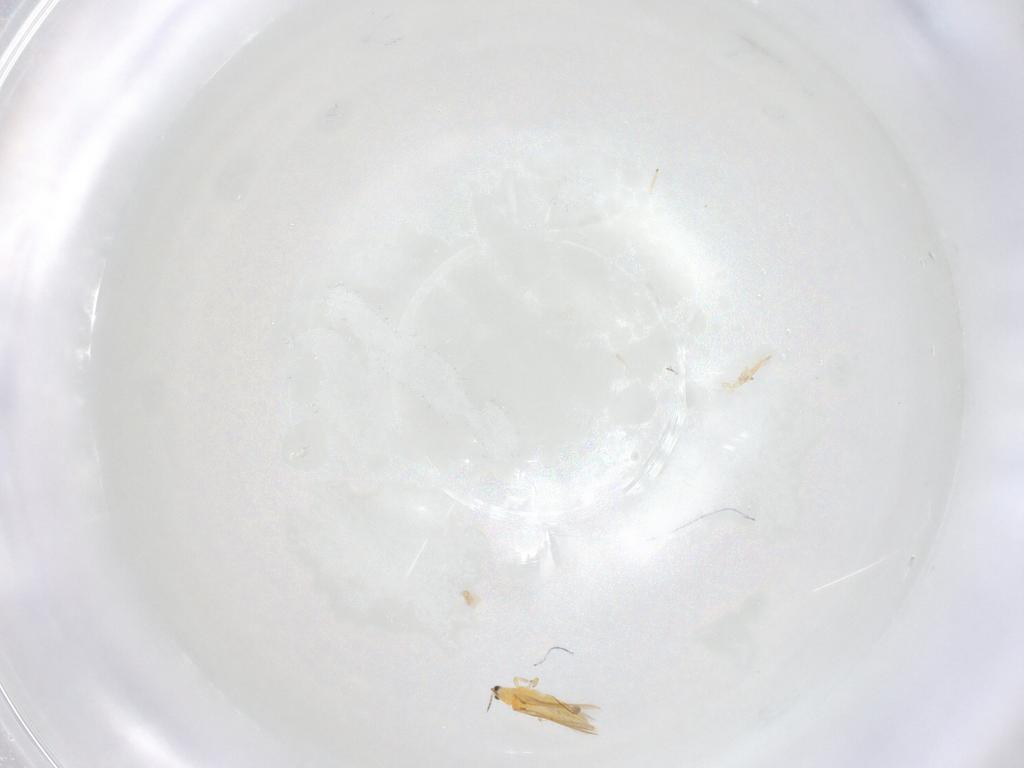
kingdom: Animalia
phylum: Arthropoda
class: Insecta
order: Thysanoptera
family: Thripidae
